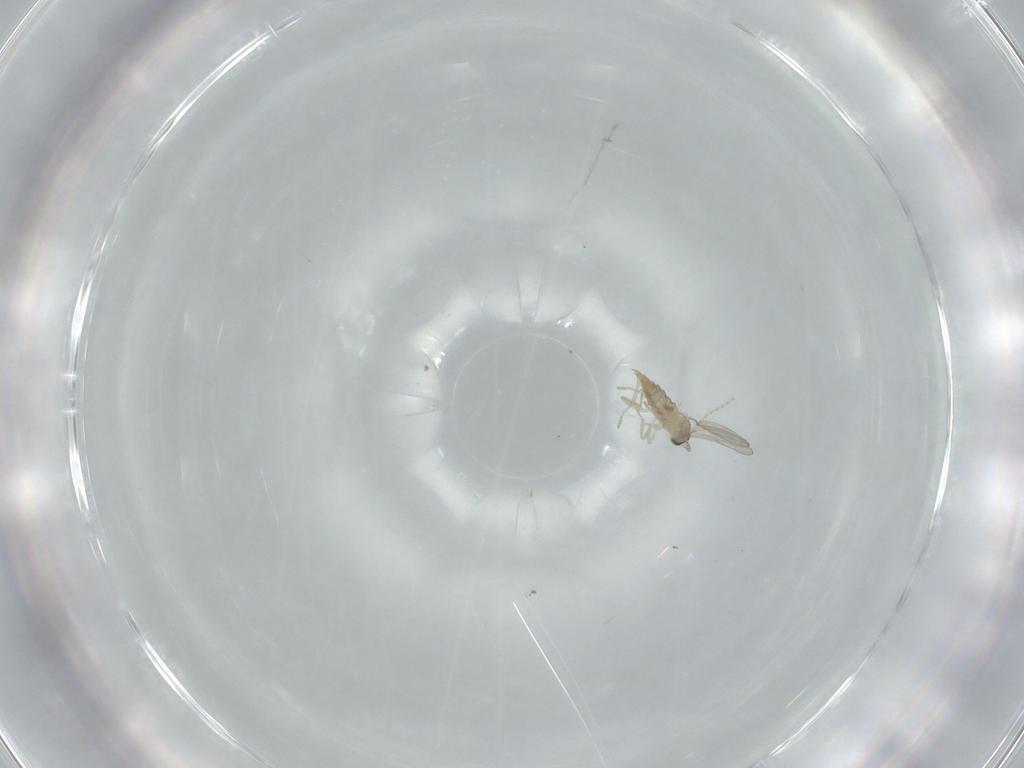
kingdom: Animalia
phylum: Arthropoda
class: Insecta
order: Diptera
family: Cecidomyiidae
